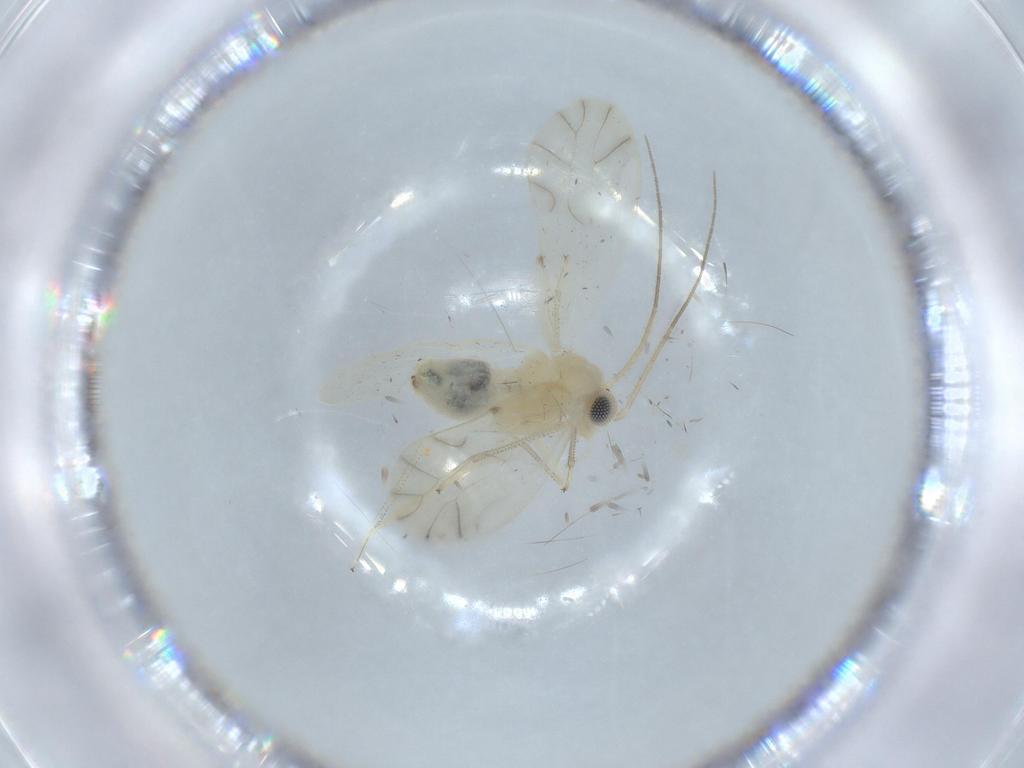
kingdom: Animalia
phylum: Arthropoda
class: Insecta
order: Psocodea
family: Caeciliusidae
